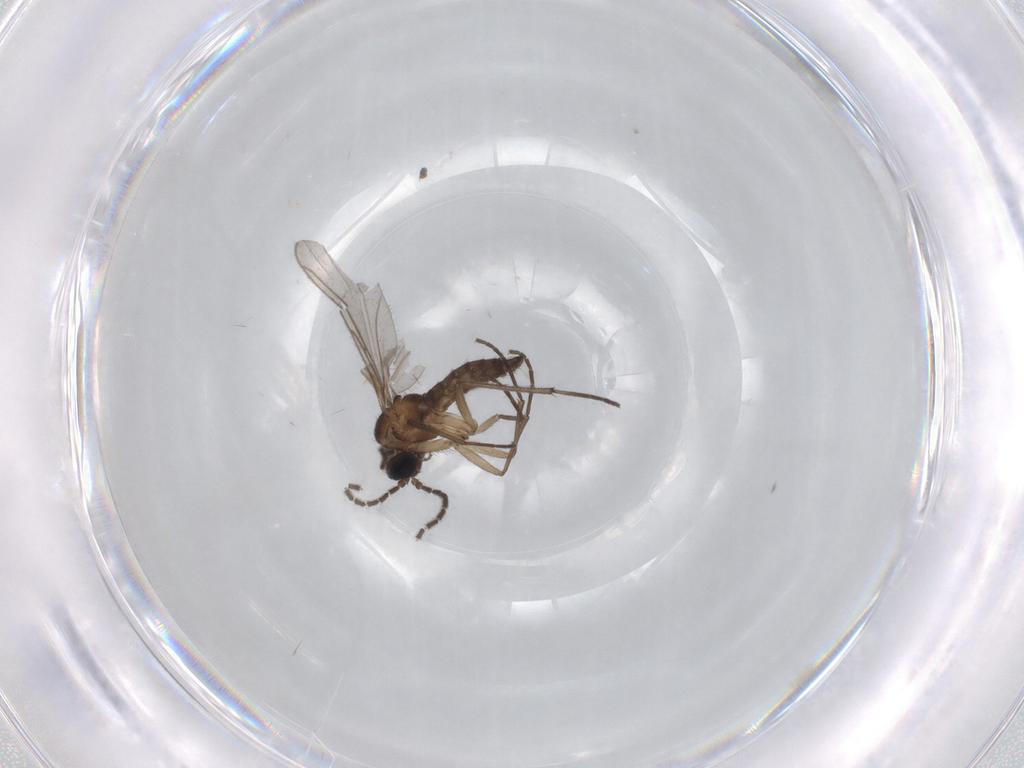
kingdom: Animalia
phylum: Arthropoda
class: Insecta
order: Diptera
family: Sciaridae
